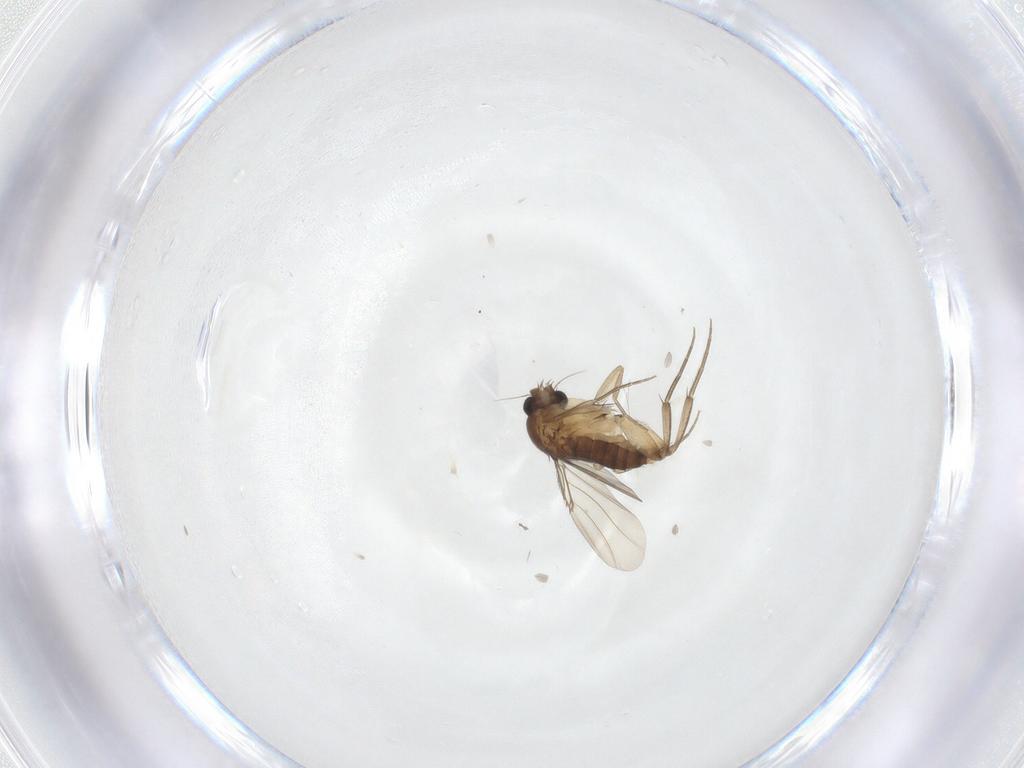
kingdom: Animalia
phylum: Arthropoda
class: Insecta
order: Diptera
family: Phoridae
